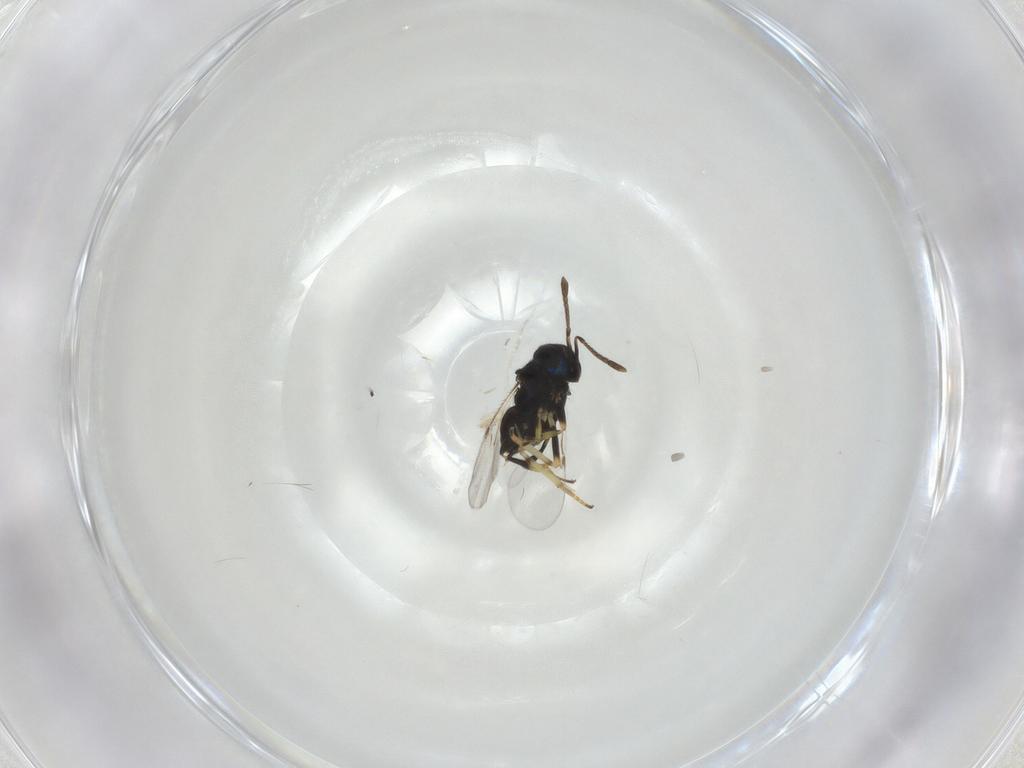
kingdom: Animalia
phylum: Arthropoda
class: Insecta
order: Hymenoptera
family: Encyrtidae
